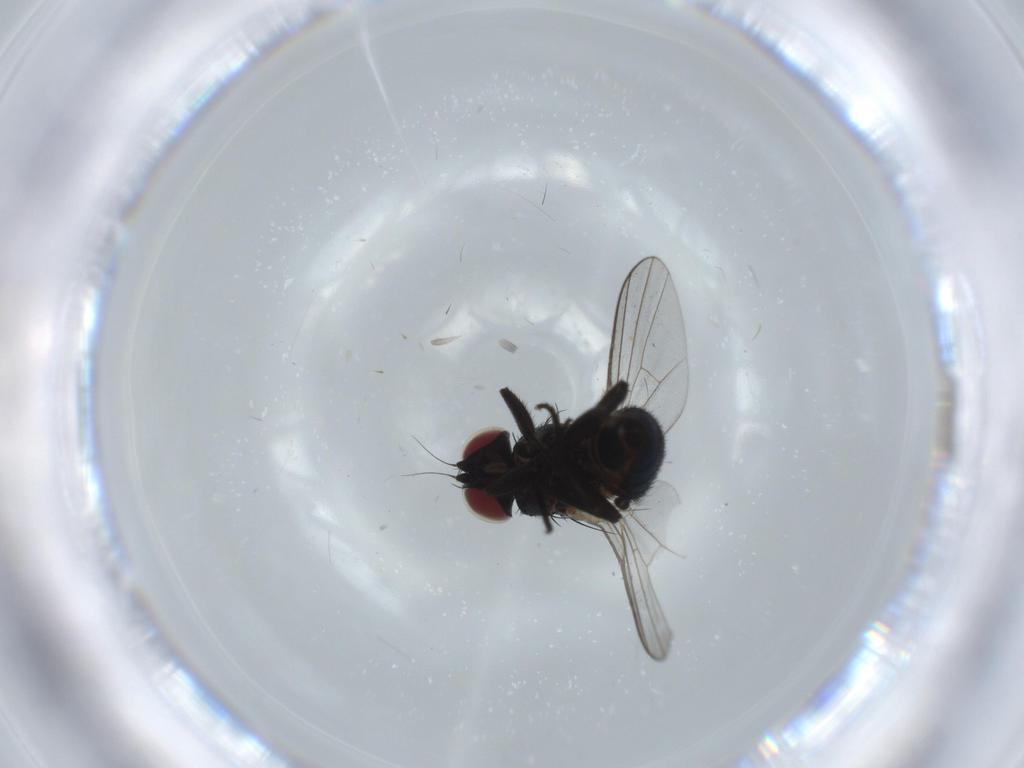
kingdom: Animalia
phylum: Arthropoda
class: Insecta
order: Diptera
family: Agromyzidae
